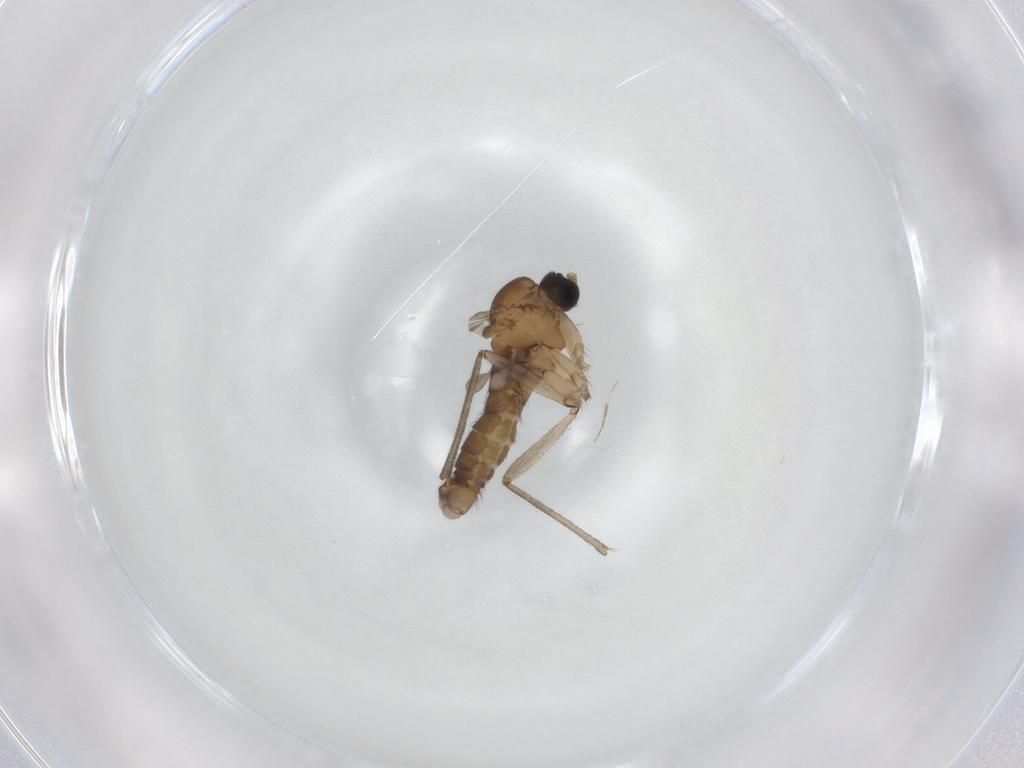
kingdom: Animalia
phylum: Arthropoda
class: Insecta
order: Diptera
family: Sciaridae
